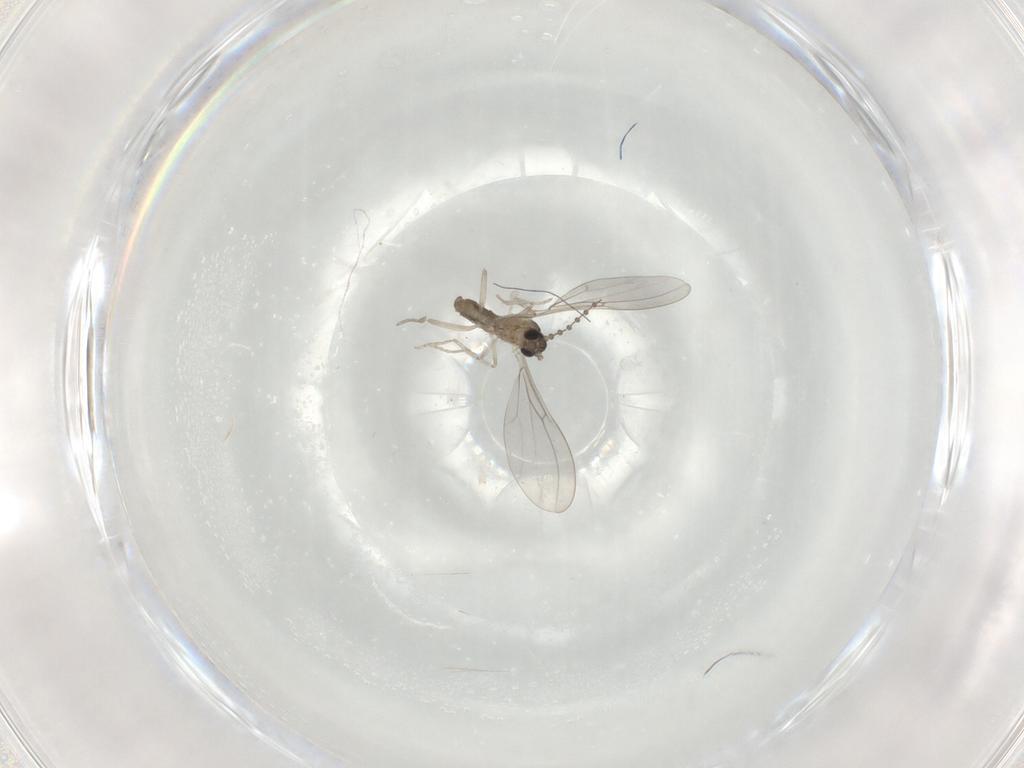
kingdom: Animalia
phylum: Arthropoda
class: Insecta
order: Diptera
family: Cecidomyiidae
